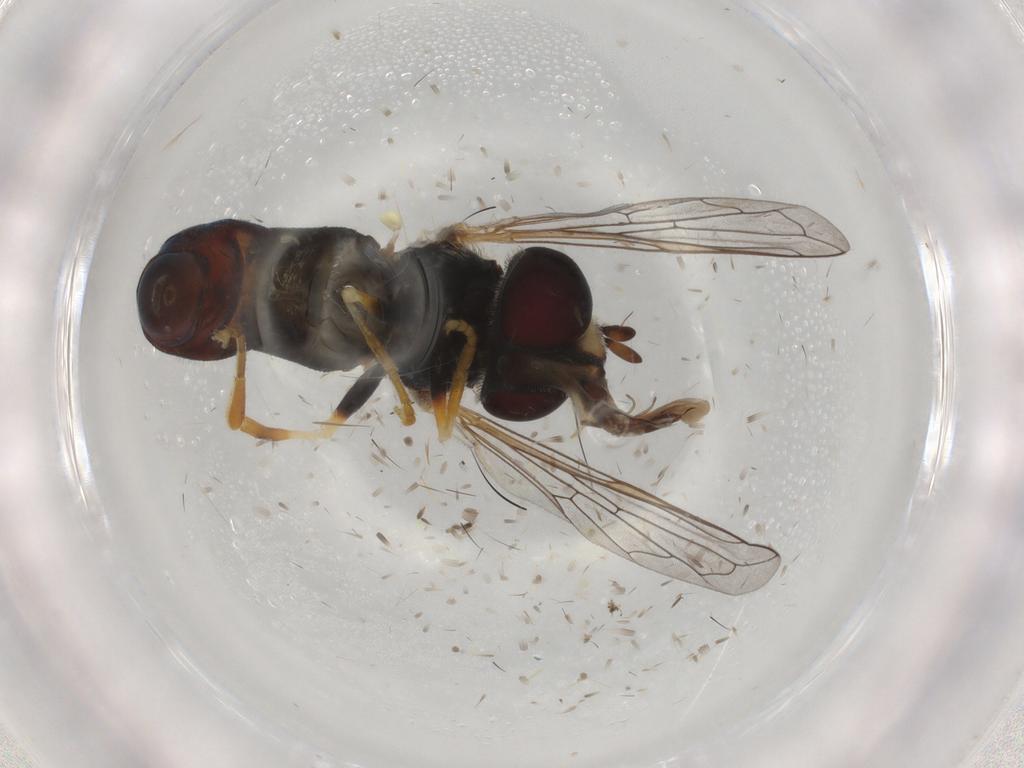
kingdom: Animalia
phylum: Arthropoda
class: Insecta
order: Diptera
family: Syrphidae
